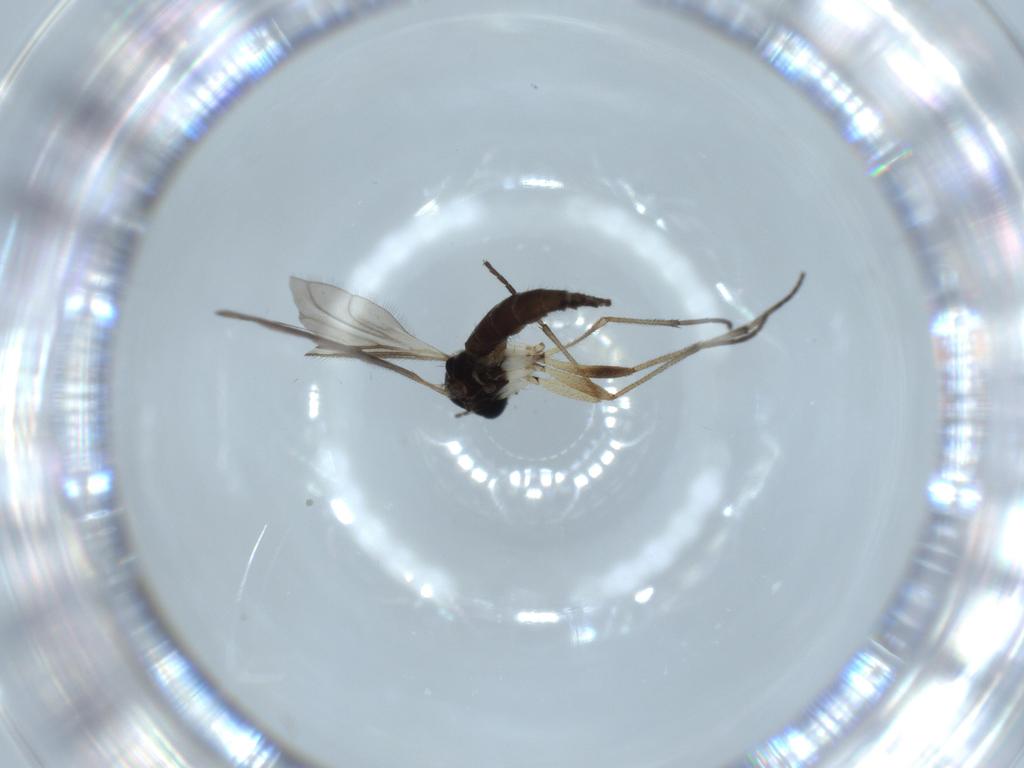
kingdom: Animalia
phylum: Arthropoda
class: Insecta
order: Diptera
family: Sciaridae
